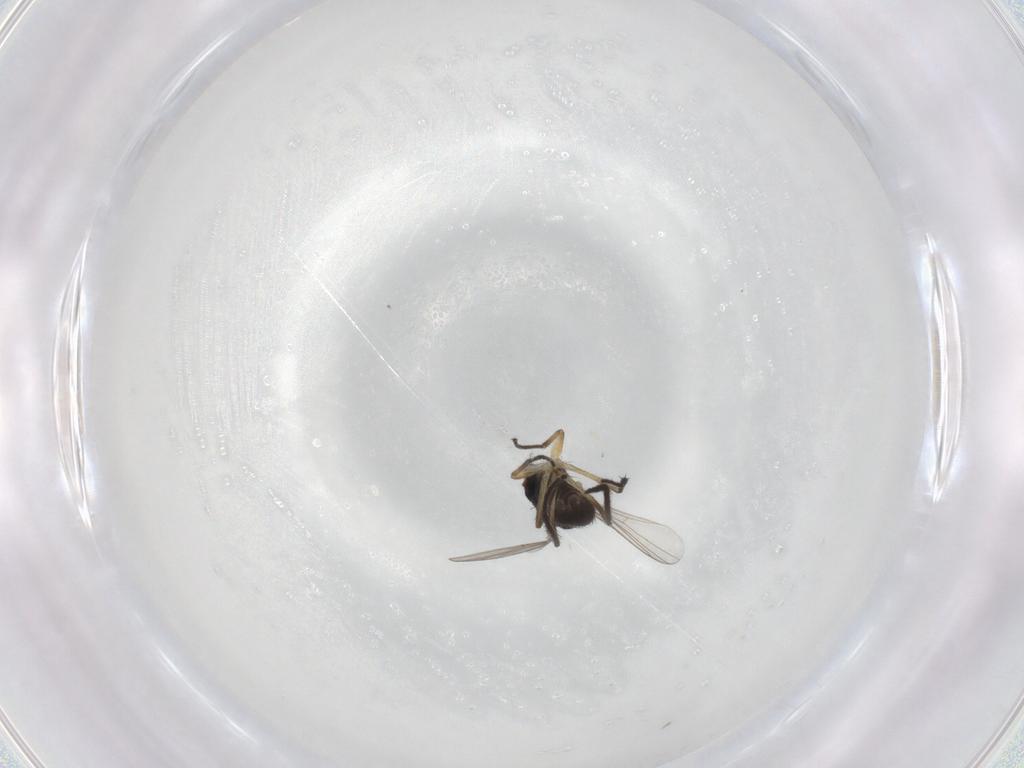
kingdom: Animalia
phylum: Arthropoda
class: Insecta
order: Diptera
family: Dolichopodidae
